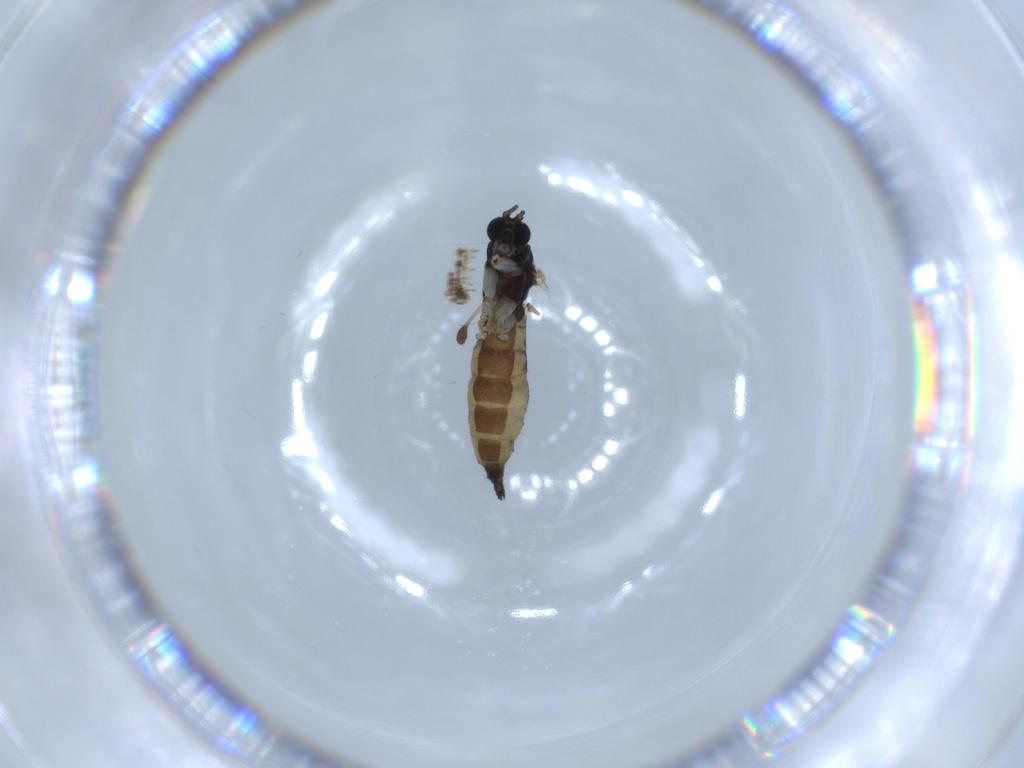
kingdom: Animalia
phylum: Arthropoda
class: Insecta
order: Diptera
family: Sciaridae
